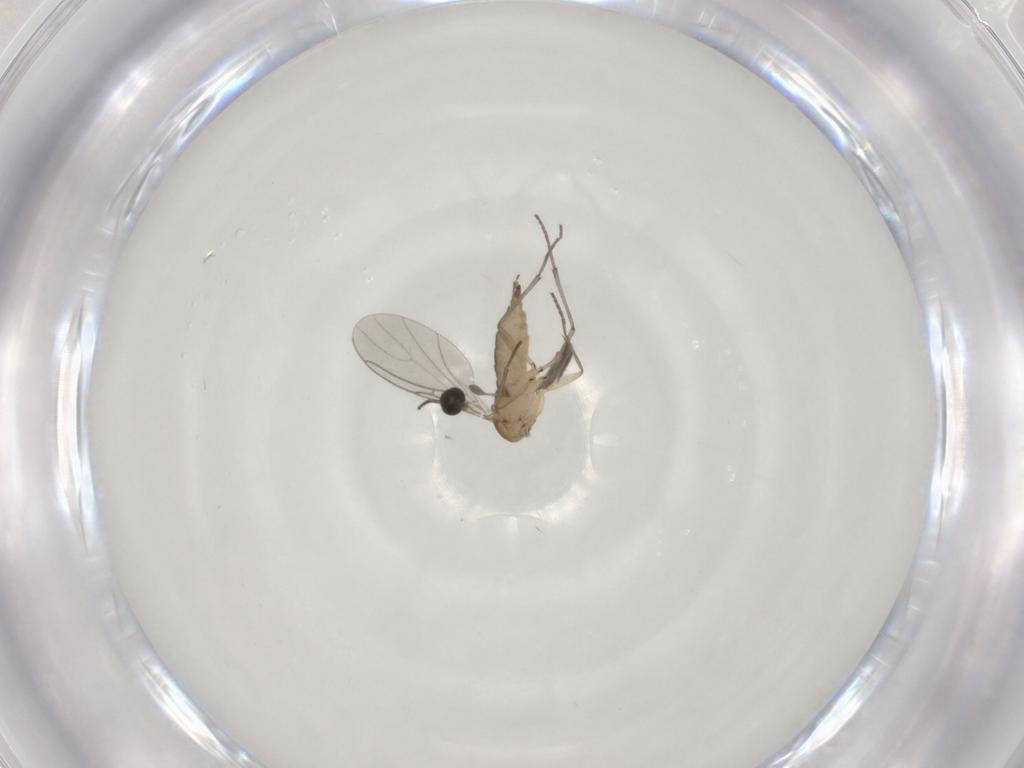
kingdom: Animalia
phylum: Arthropoda
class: Insecta
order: Diptera
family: Sciaridae
